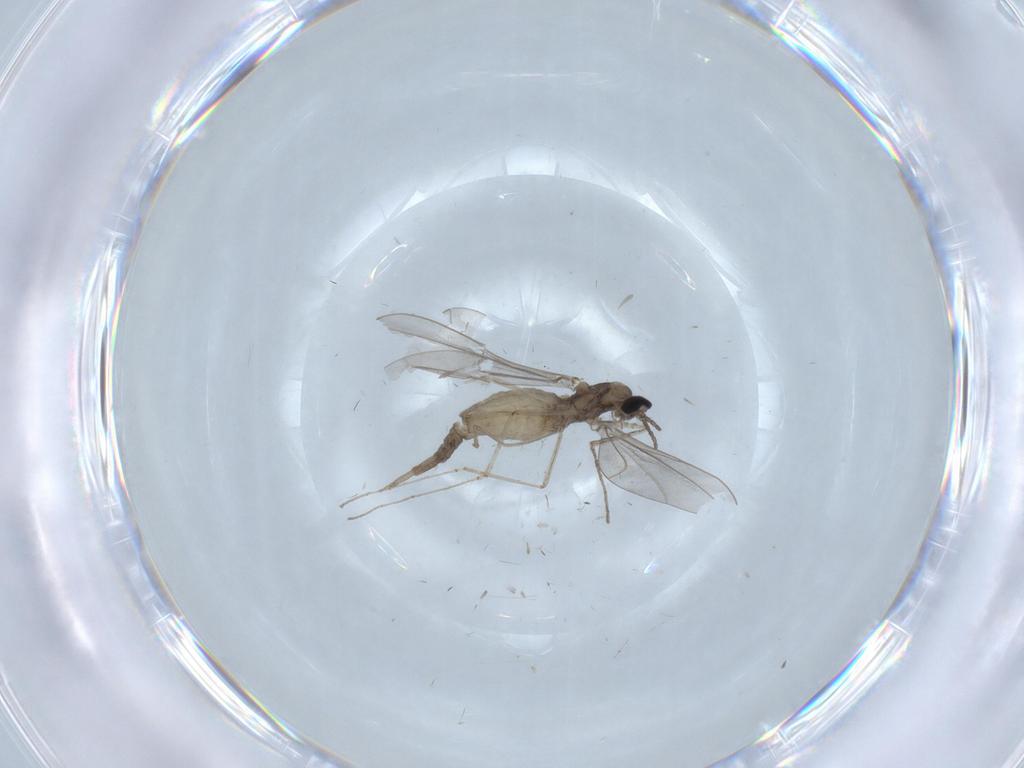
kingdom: Animalia
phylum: Arthropoda
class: Insecta
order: Diptera
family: Cecidomyiidae
